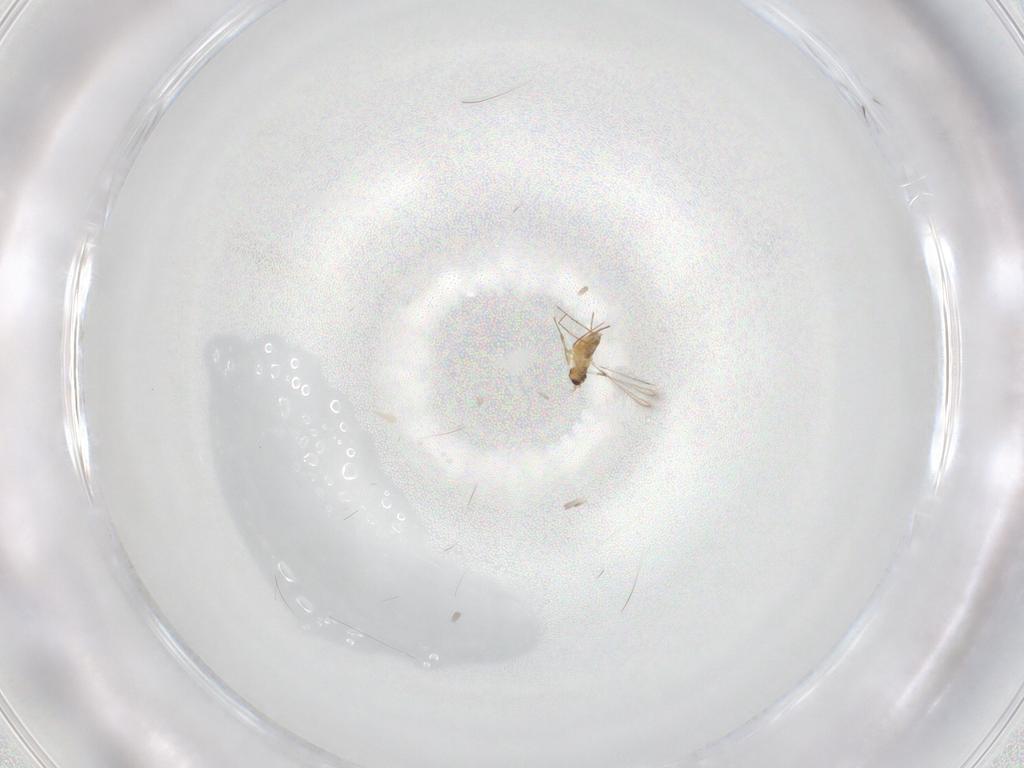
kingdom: Animalia
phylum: Arthropoda
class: Insecta
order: Hymenoptera
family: Mymaridae
